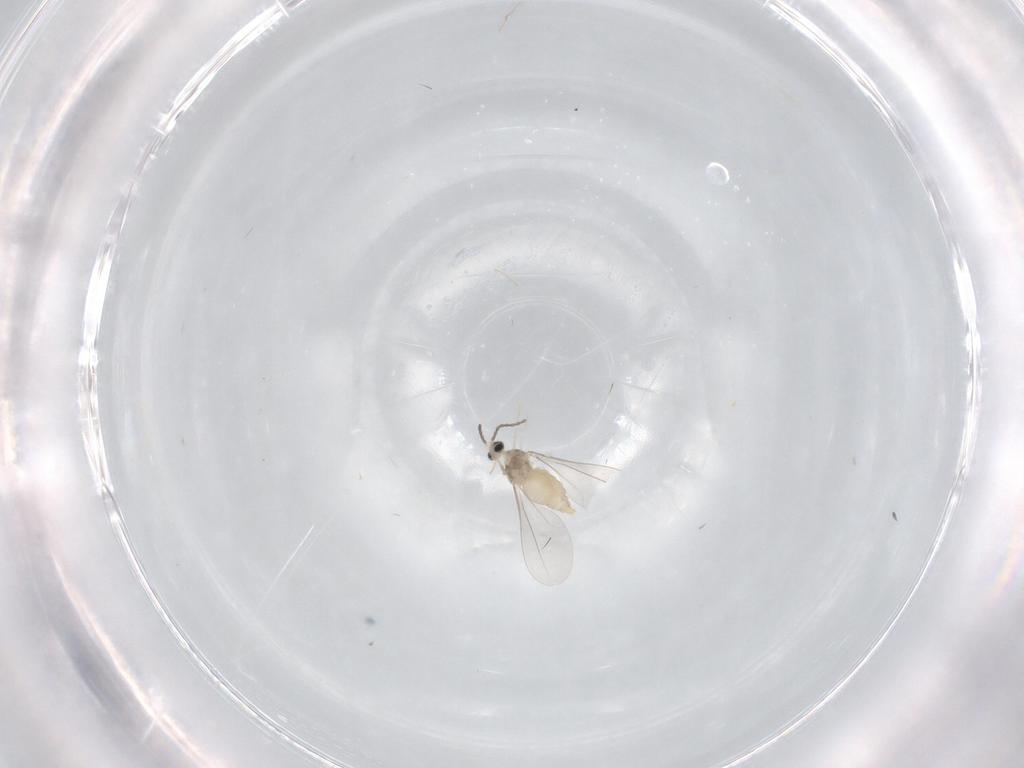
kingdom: Animalia
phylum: Arthropoda
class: Insecta
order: Diptera
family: Cecidomyiidae
